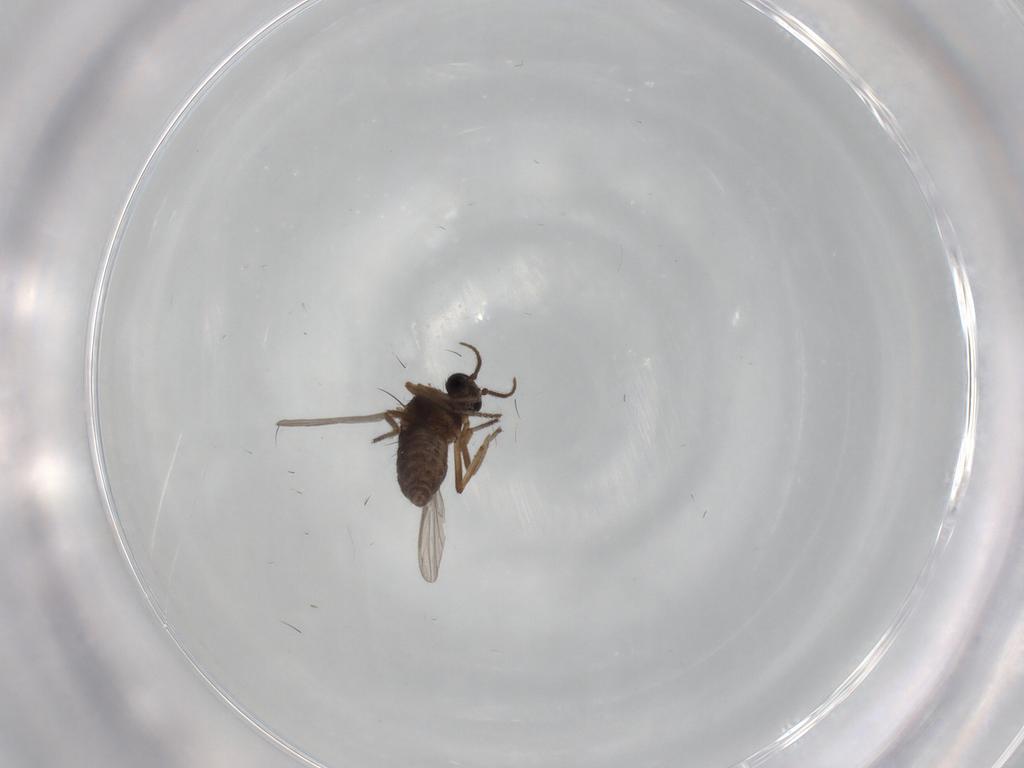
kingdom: Animalia
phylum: Arthropoda
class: Insecta
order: Diptera
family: Ceratopogonidae
